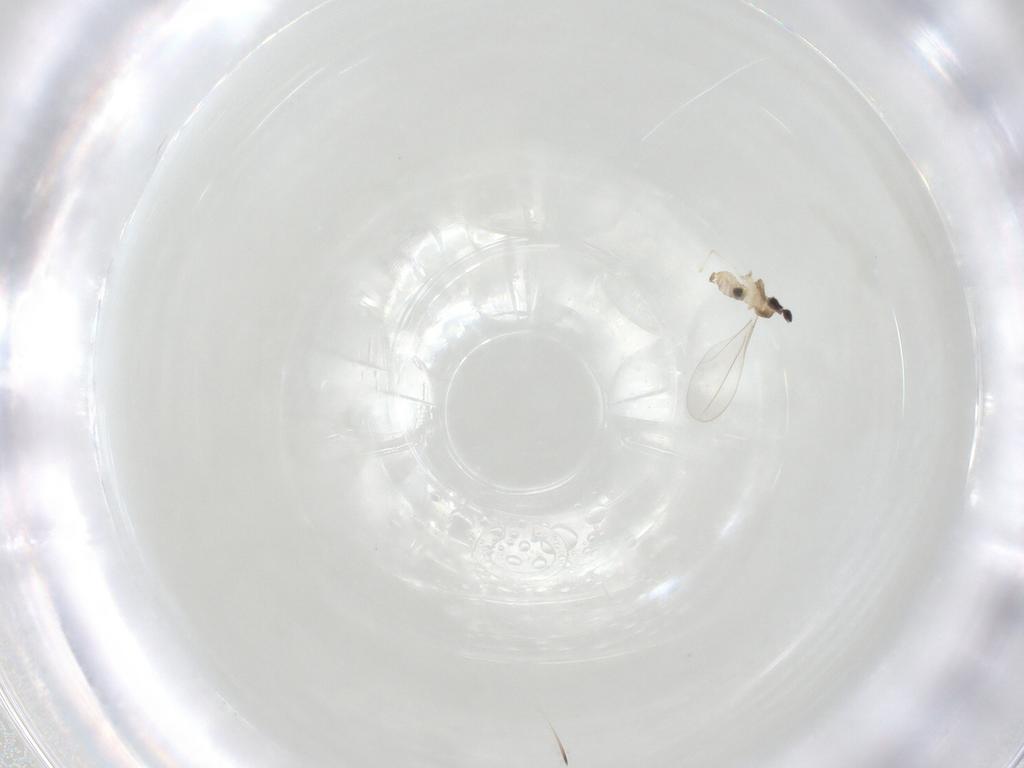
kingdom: Animalia
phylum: Arthropoda
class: Insecta
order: Diptera
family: Cecidomyiidae
